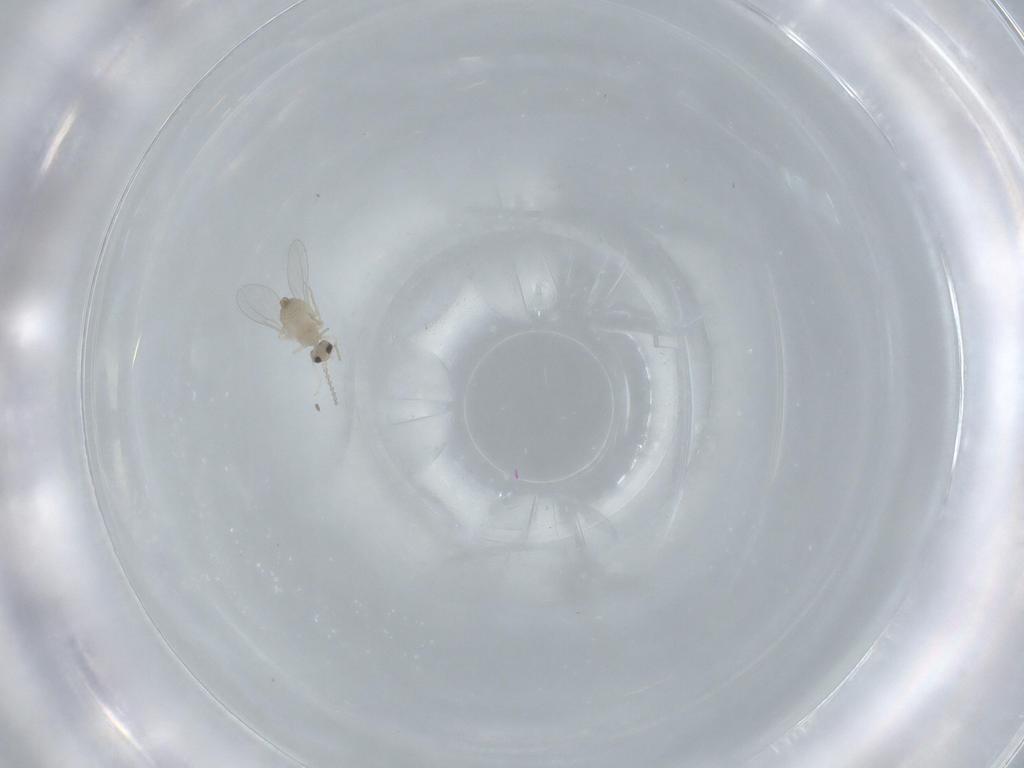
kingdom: Animalia
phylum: Arthropoda
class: Insecta
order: Diptera
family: Cecidomyiidae
